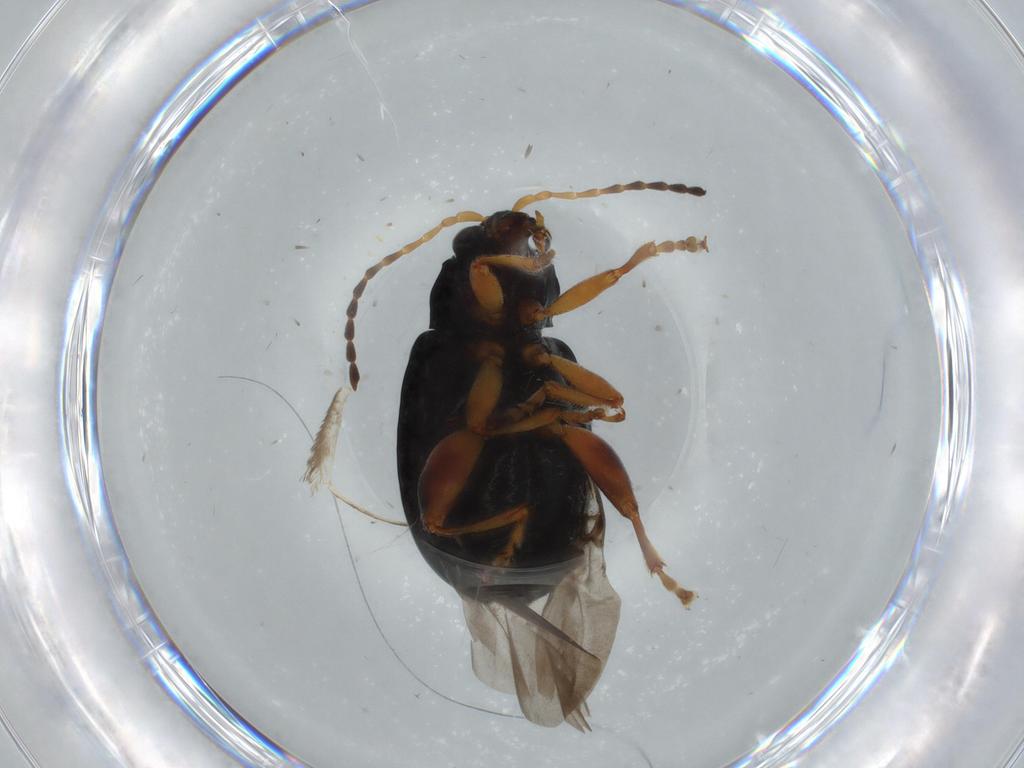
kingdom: Animalia
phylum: Arthropoda
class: Insecta
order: Coleoptera
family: Chrysomelidae
